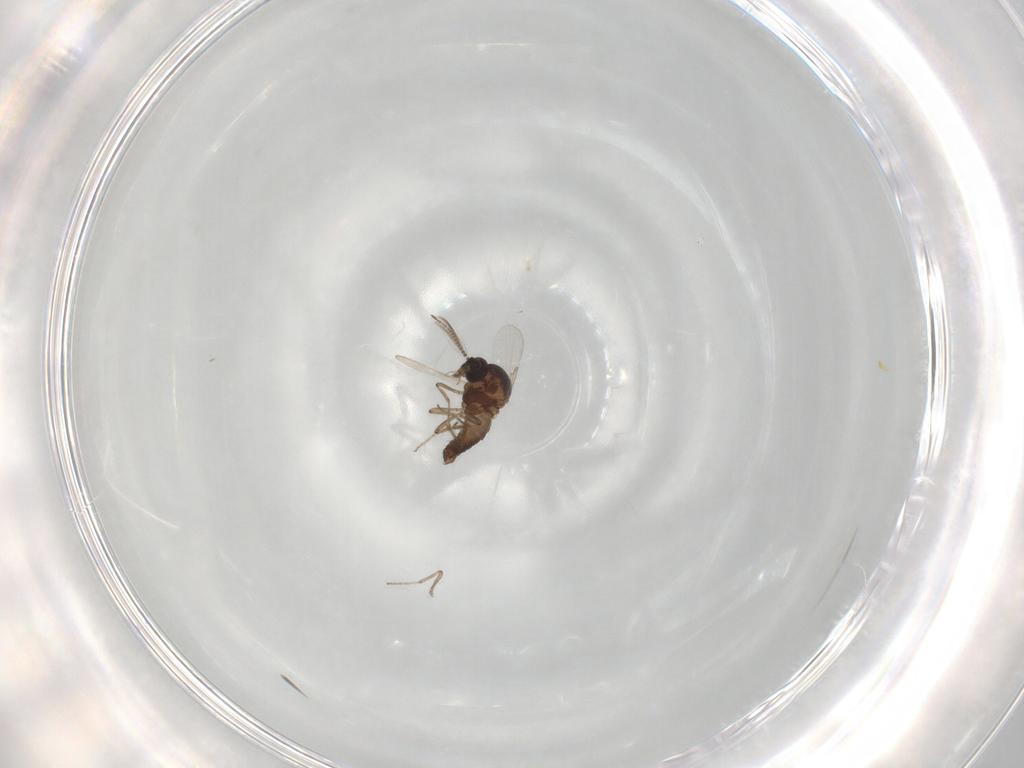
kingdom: Animalia
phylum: Arthropoda
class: Insecta
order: Diptera
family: Ceratopogonidae
